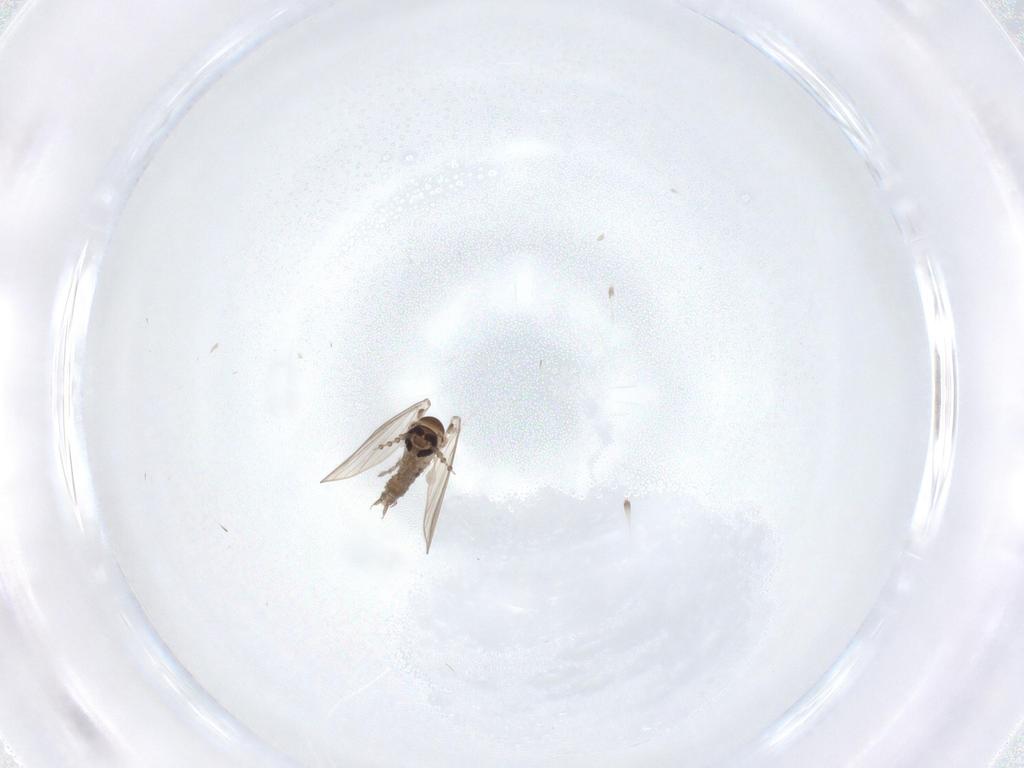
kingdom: Animalia
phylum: Arthropoda
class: Insecta
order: Diptera
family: Psychodidae
